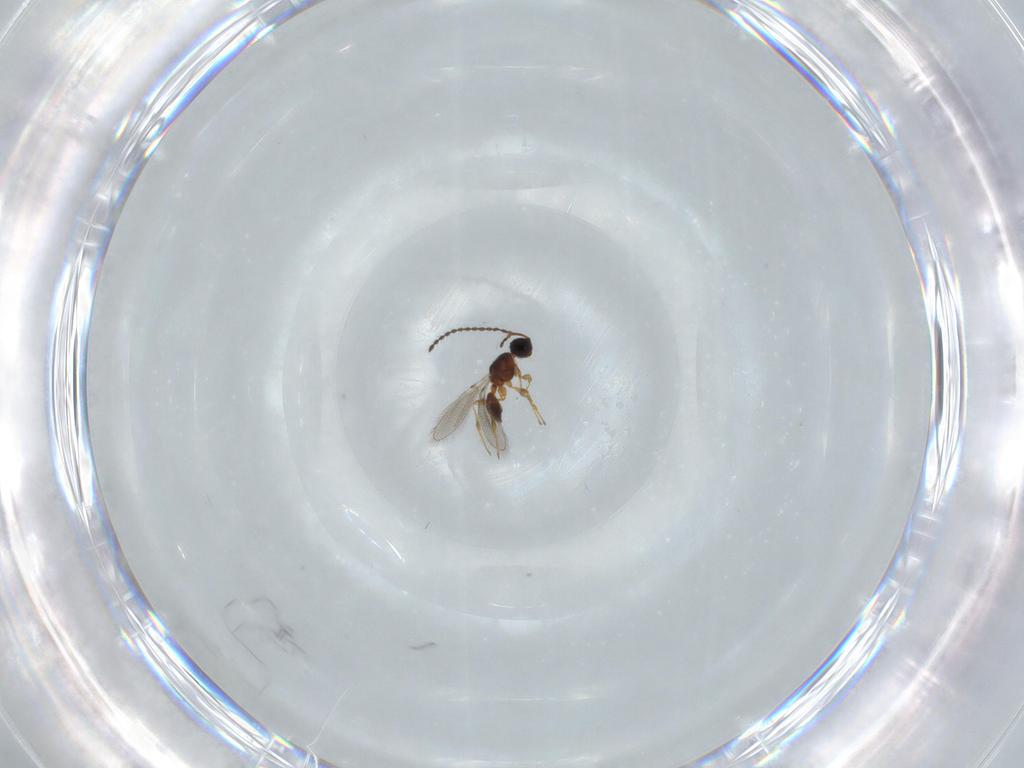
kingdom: Animalia
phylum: Arthropoda
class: Insecta
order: Hymenoptera
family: Diapriidae
